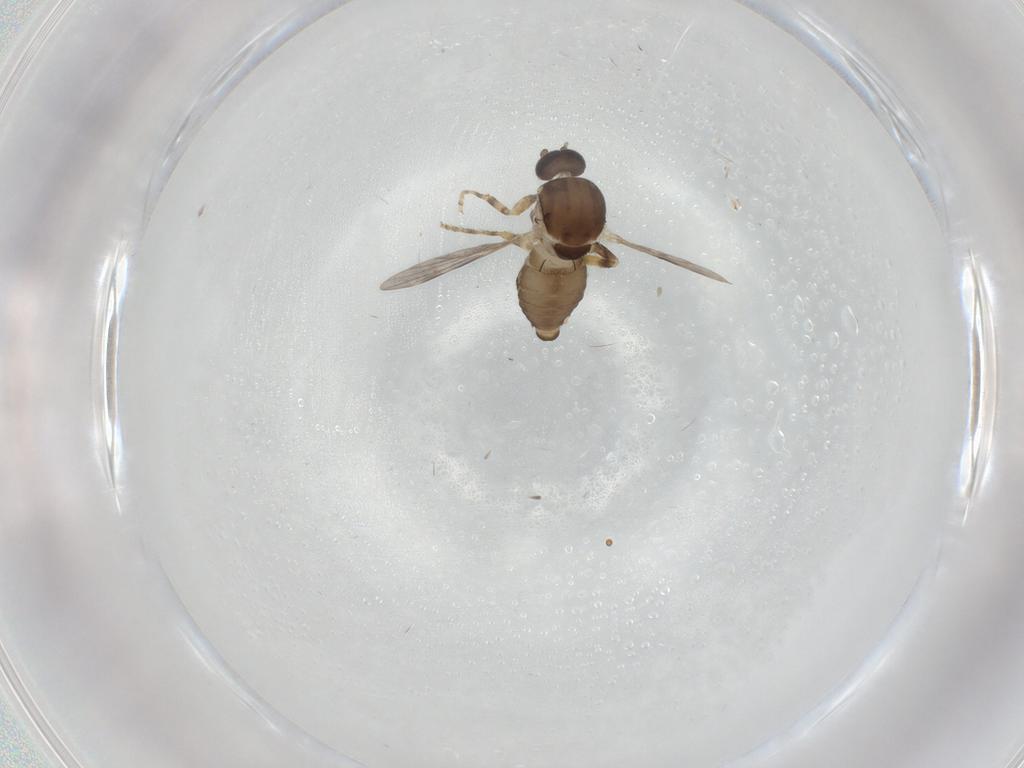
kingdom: Animalia
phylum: Arthropoda
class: Insecta
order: Diptera
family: Ceratopogonidae
